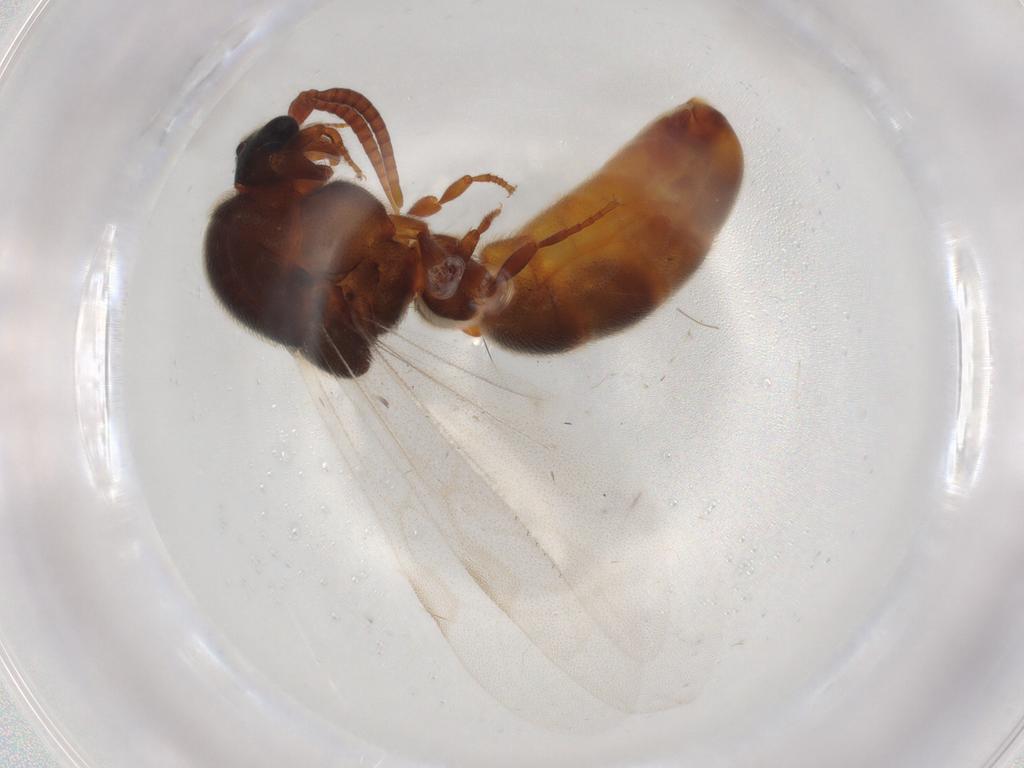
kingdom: Animalia
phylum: Arthropoda
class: Insecta
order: Hymenoptera
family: Formicidae
